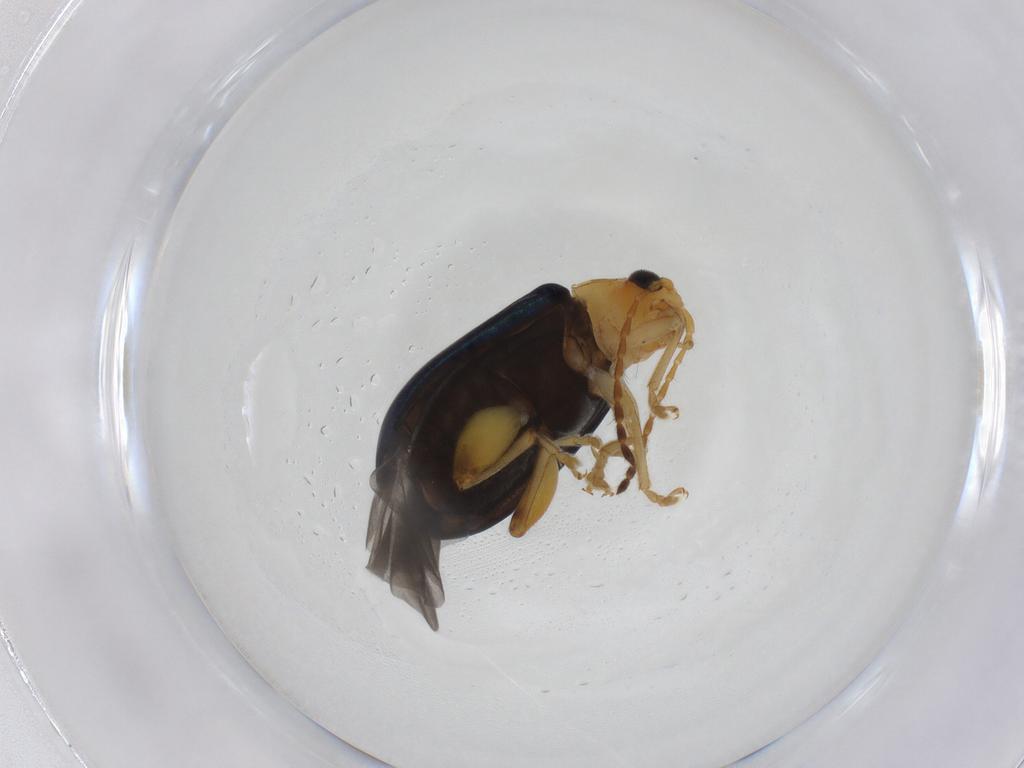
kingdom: Animalia
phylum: Arthropoda
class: Insecta
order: Coleoptera
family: Chrysomelidae
